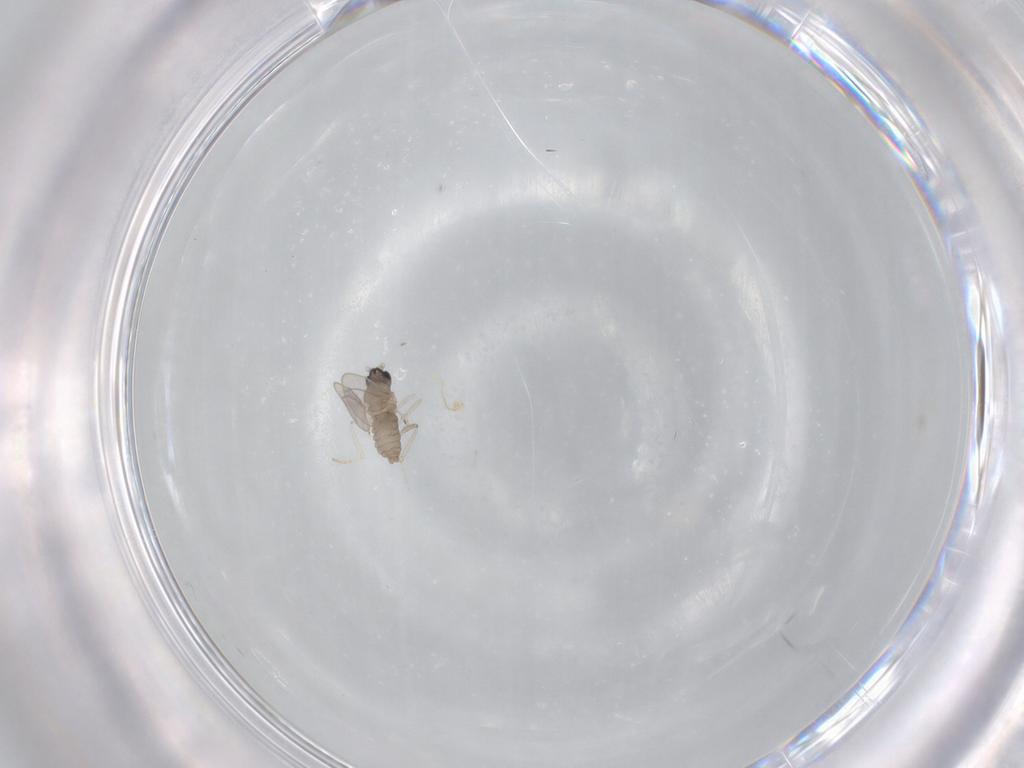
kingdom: Animalia
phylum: Arthropoda
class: Insecta
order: Diptera
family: Cecidomyiidae
